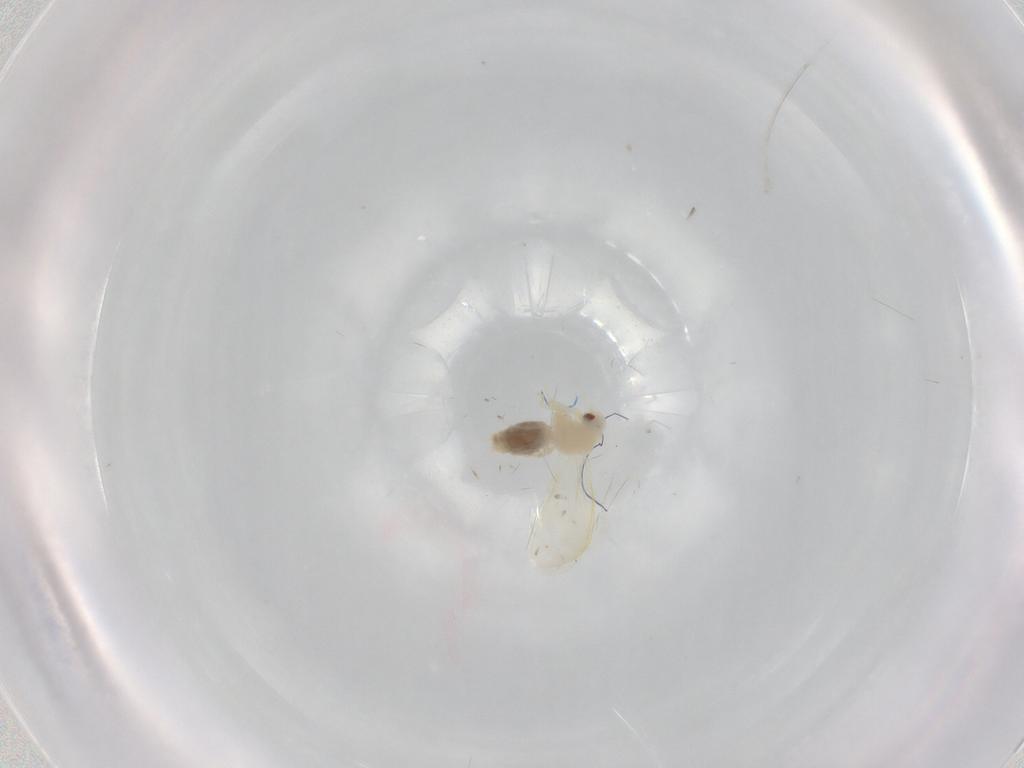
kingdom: Animalia
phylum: Arthropoda
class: Insecta
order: Hemiptera
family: Aleyrodidae
